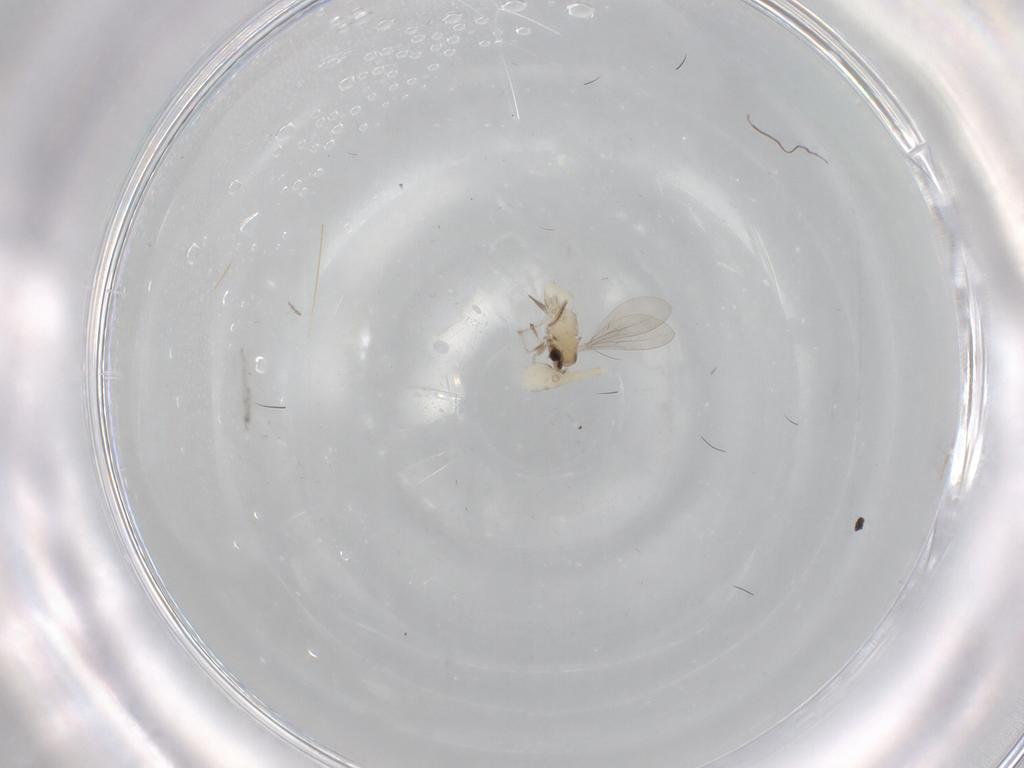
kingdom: Animalia
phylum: Arthropoda
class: Insecta
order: Diptera
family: Cecidomyiidae
